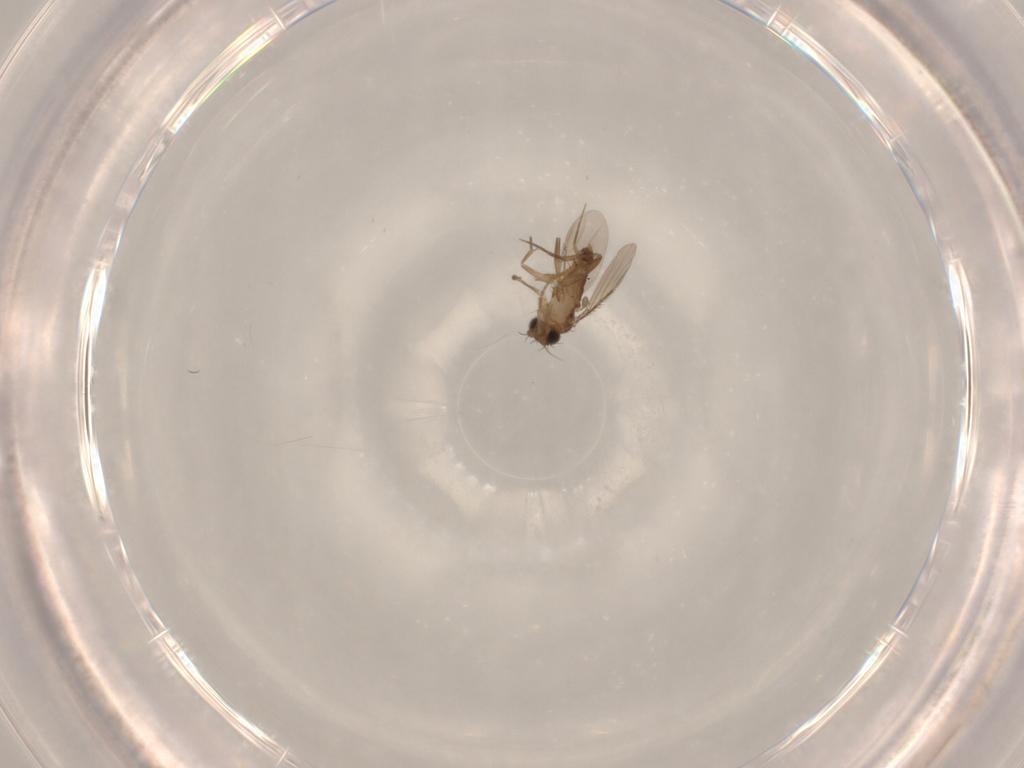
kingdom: Animalia
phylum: Arthropoda
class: Insecta
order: Diptera
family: Phoridae
